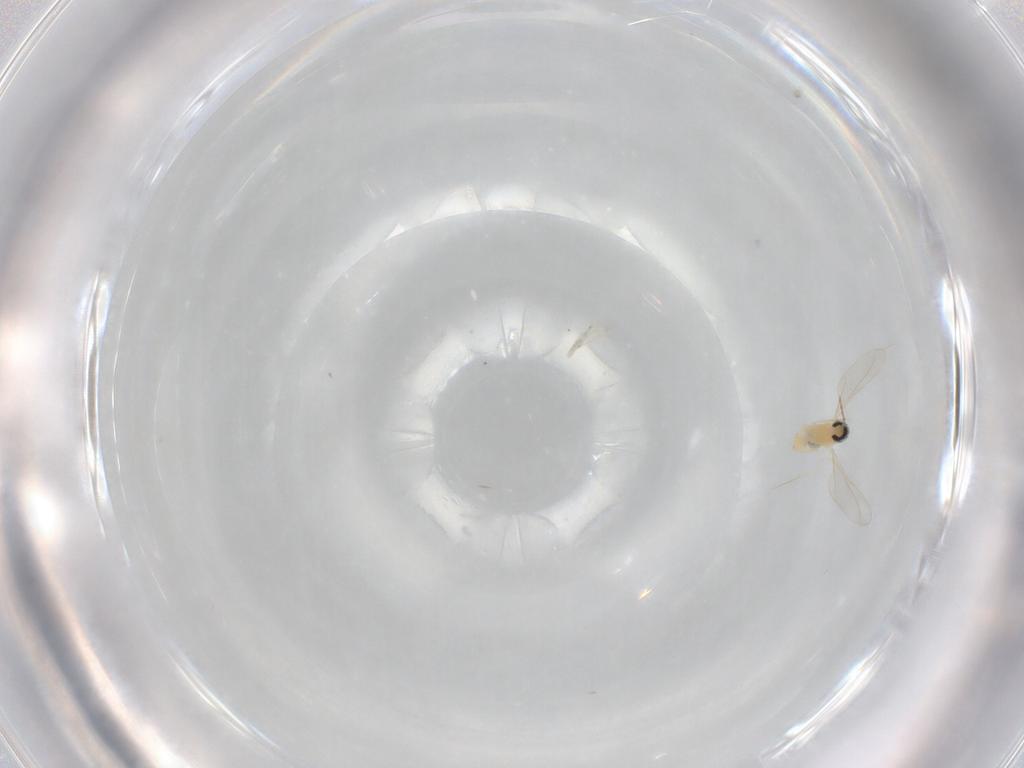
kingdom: Animalia
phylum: Arthropoda
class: Insecta
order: Diptera
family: Cecidomyiidae
